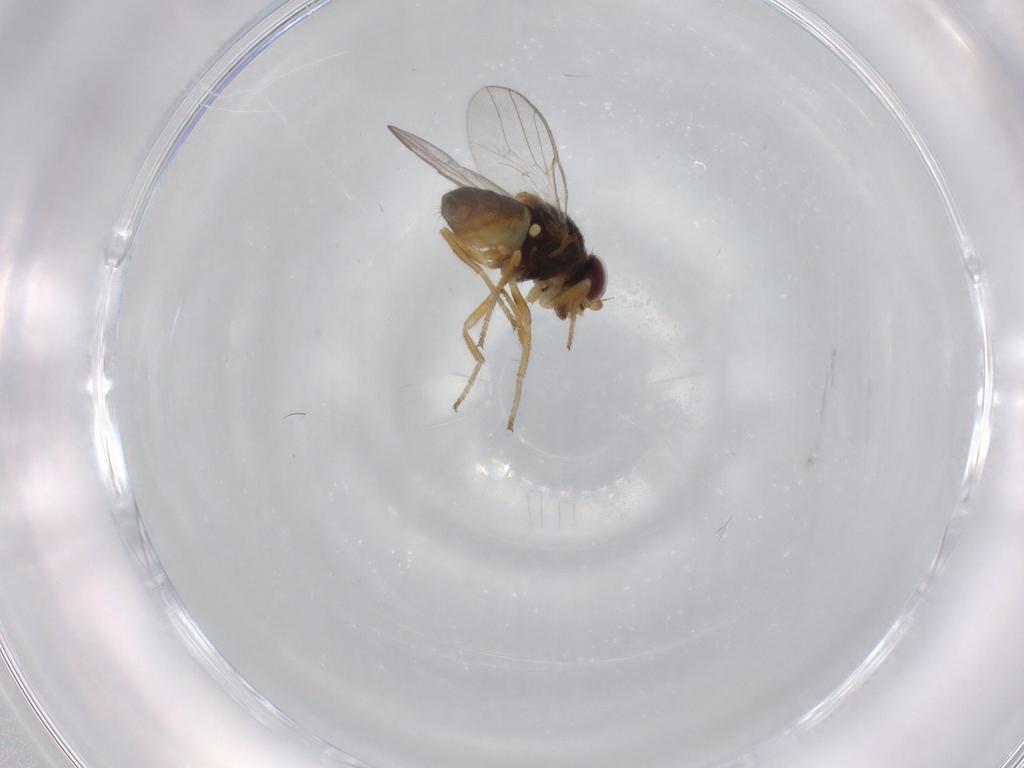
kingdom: Animalia
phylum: Arthropoda
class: Insecta
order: Diptera
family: Chloropidae
